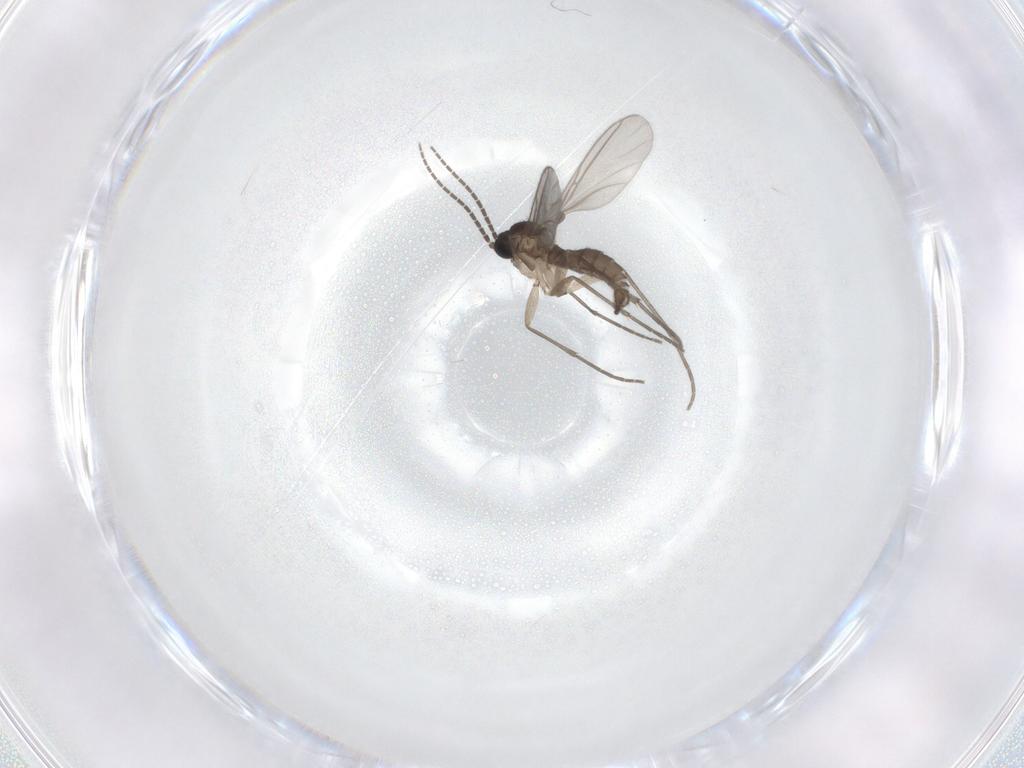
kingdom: Animalia
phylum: Arthropoda
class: Insecta
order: Diptera
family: Sciaridae
